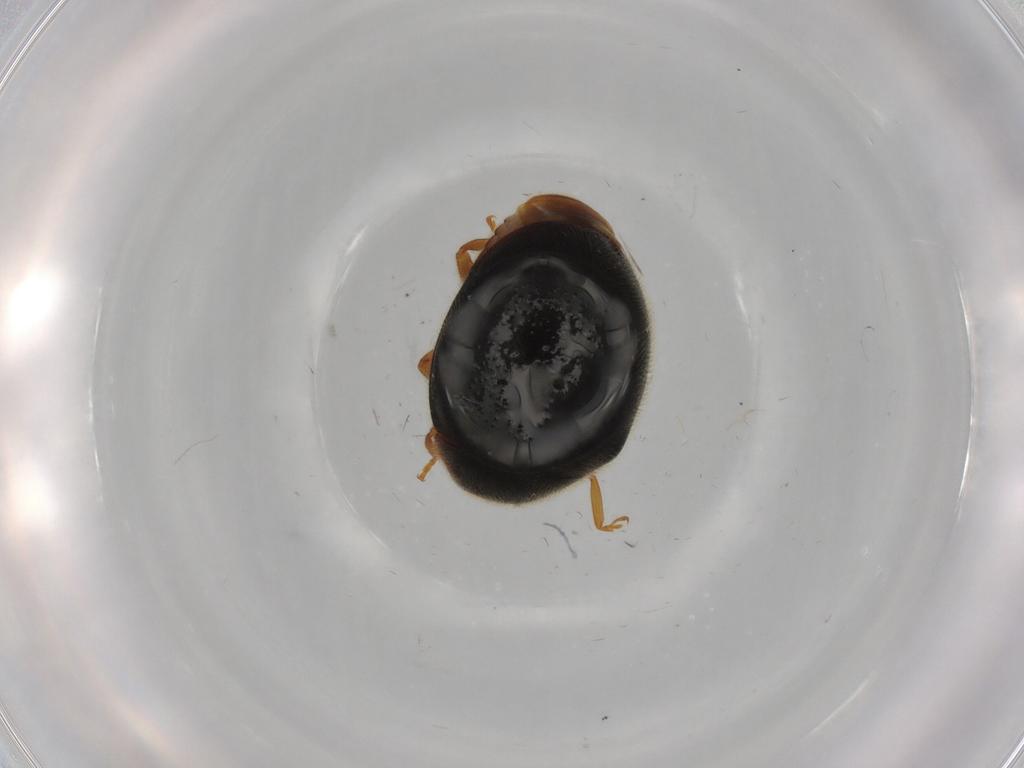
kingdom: Animalia
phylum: Arthropoda
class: Insecta
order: Coleoptera
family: Coccinellidae
